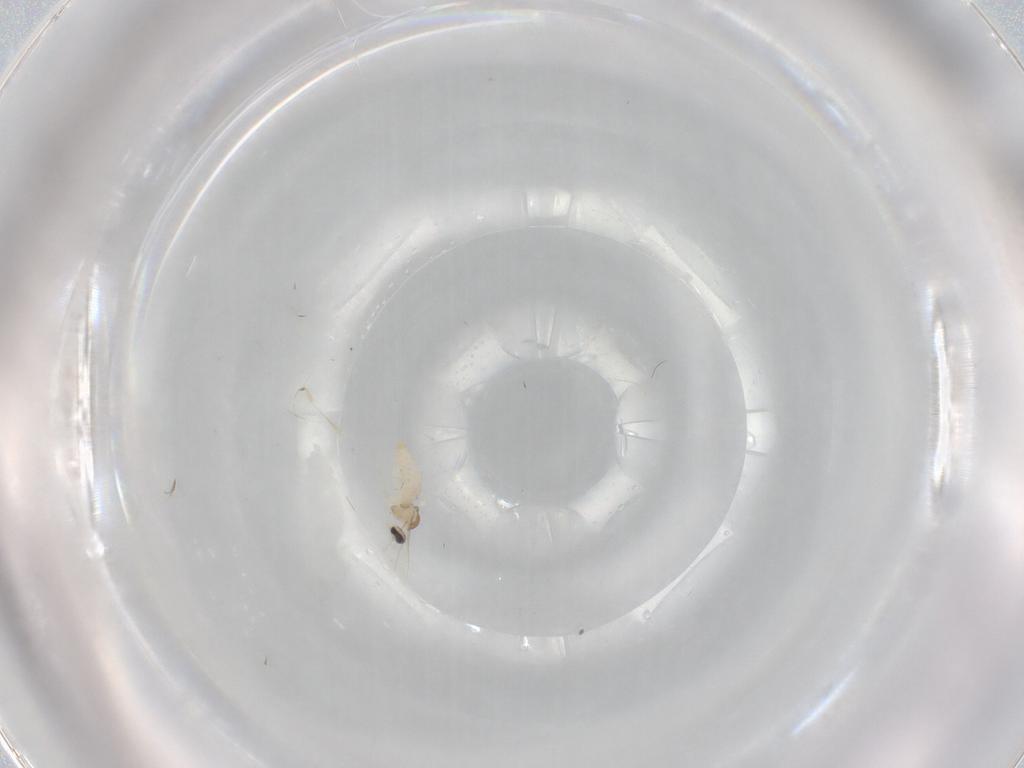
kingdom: Animalia
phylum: Arthropoda
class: Insecta
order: Diptera
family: Cecidomyiidae
